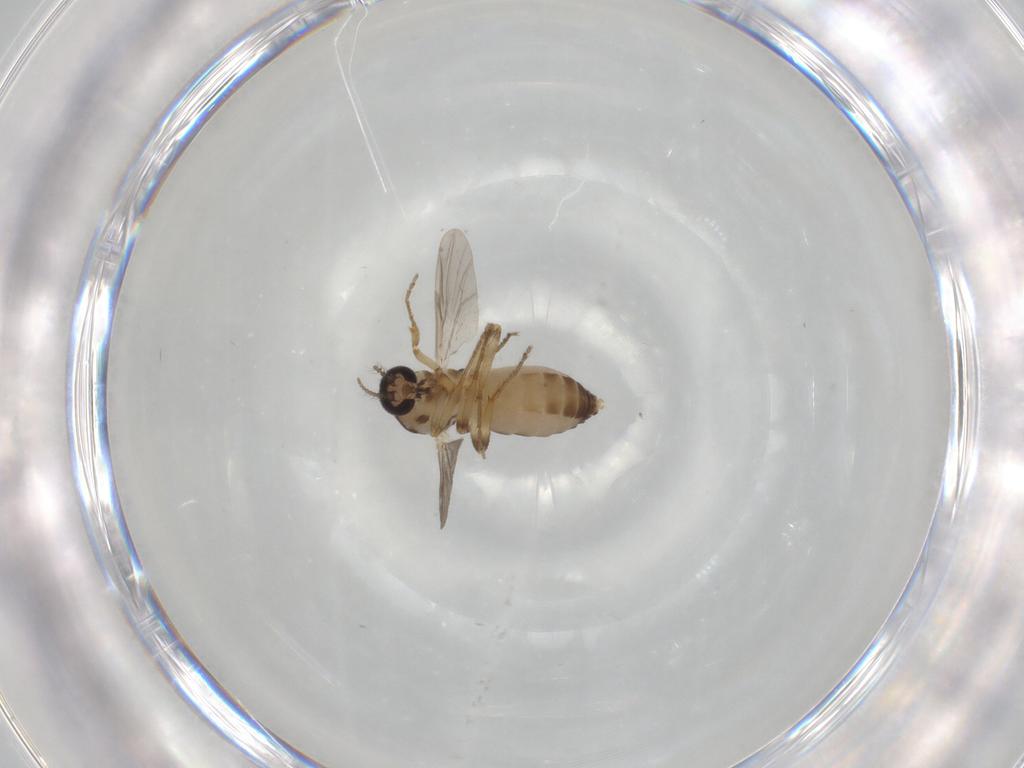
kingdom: Animalia
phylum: Arthropoda
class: Insecta
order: Diptera
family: Ceratopogonidae
